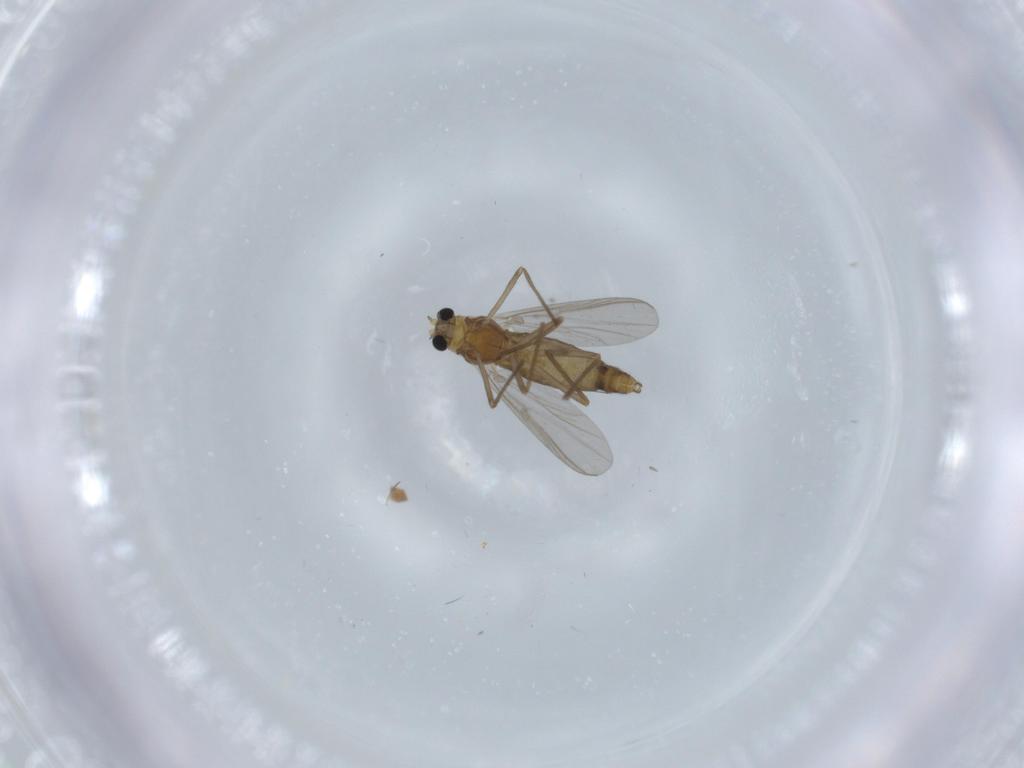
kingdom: Animalia
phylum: Arthropoda
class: Insecta
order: Diptera
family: Chironomidae
